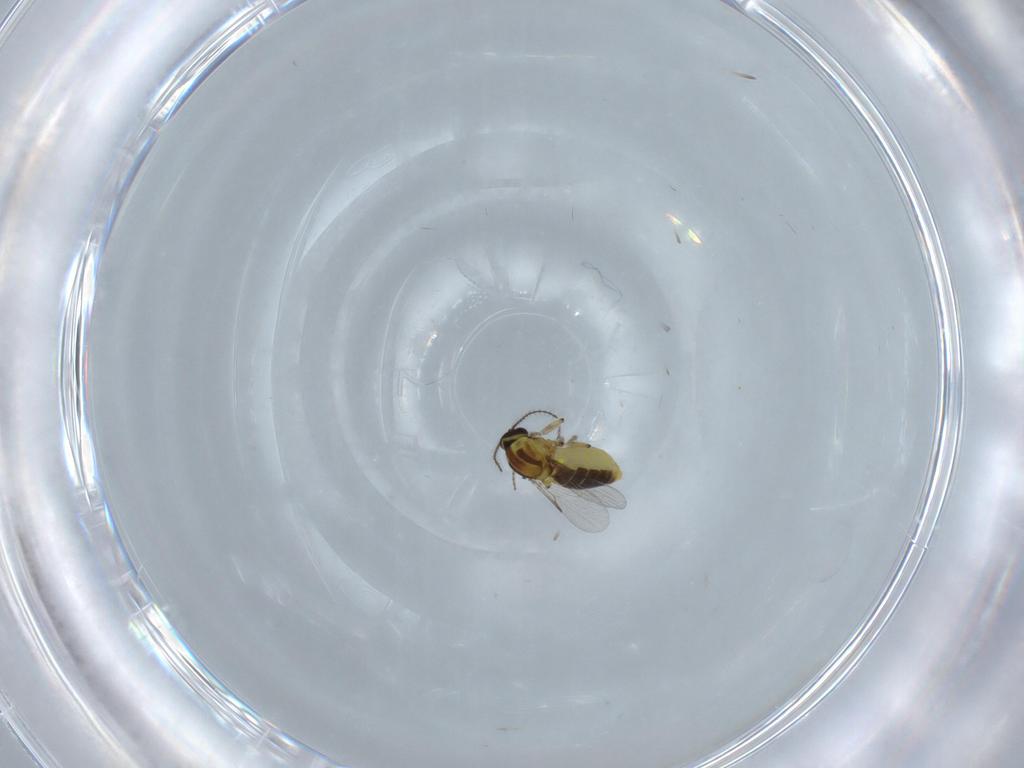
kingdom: Animalia
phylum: Arthropoda
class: Insecta
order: Diptera
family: Ceratopogonidae
